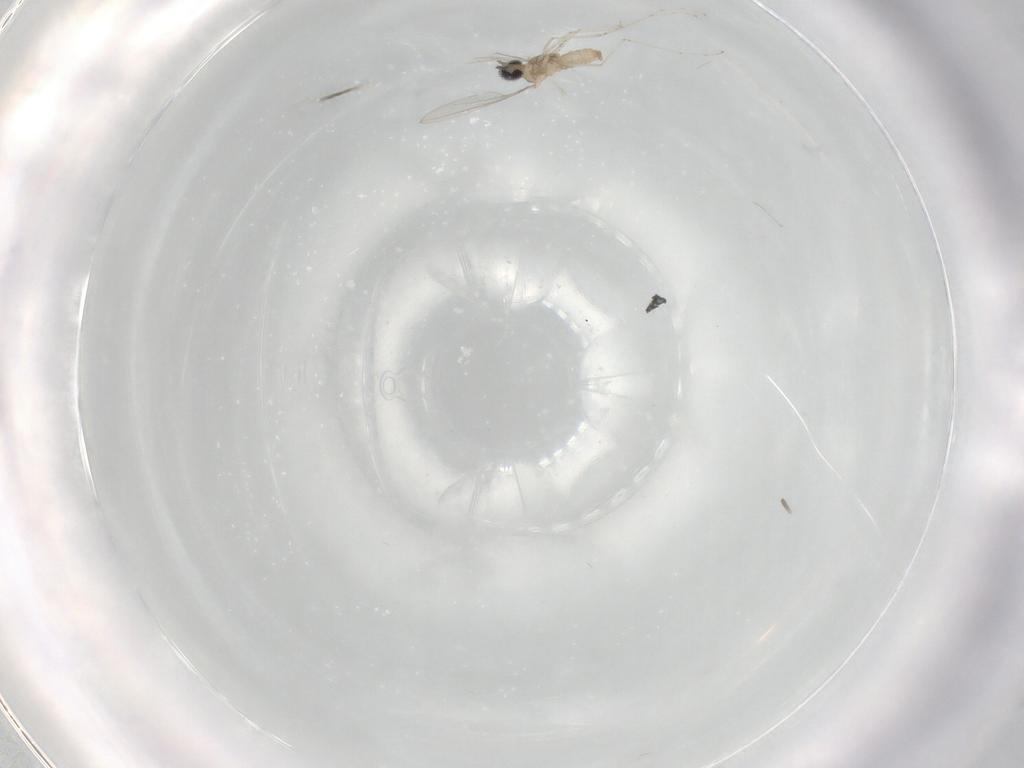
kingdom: Animalia
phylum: Arthropoda
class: Insecta
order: Diptera
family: Cecidomyiidae
